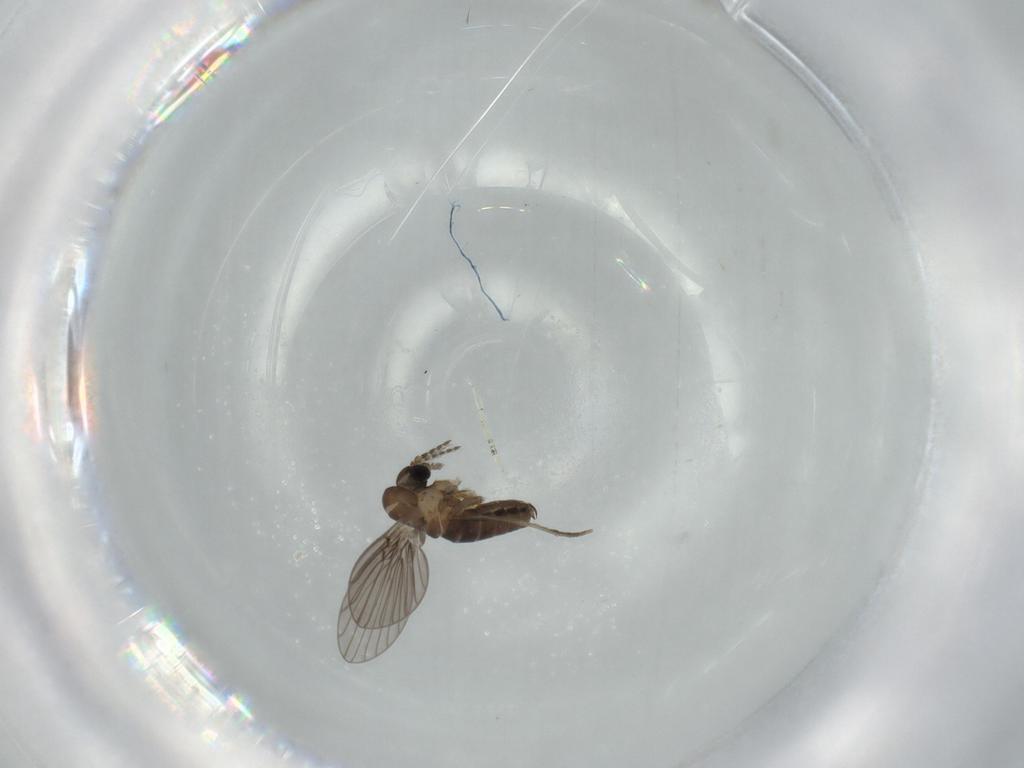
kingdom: Animalia
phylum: Arthropoda
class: Insecta
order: Diptera
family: Psychodidae
